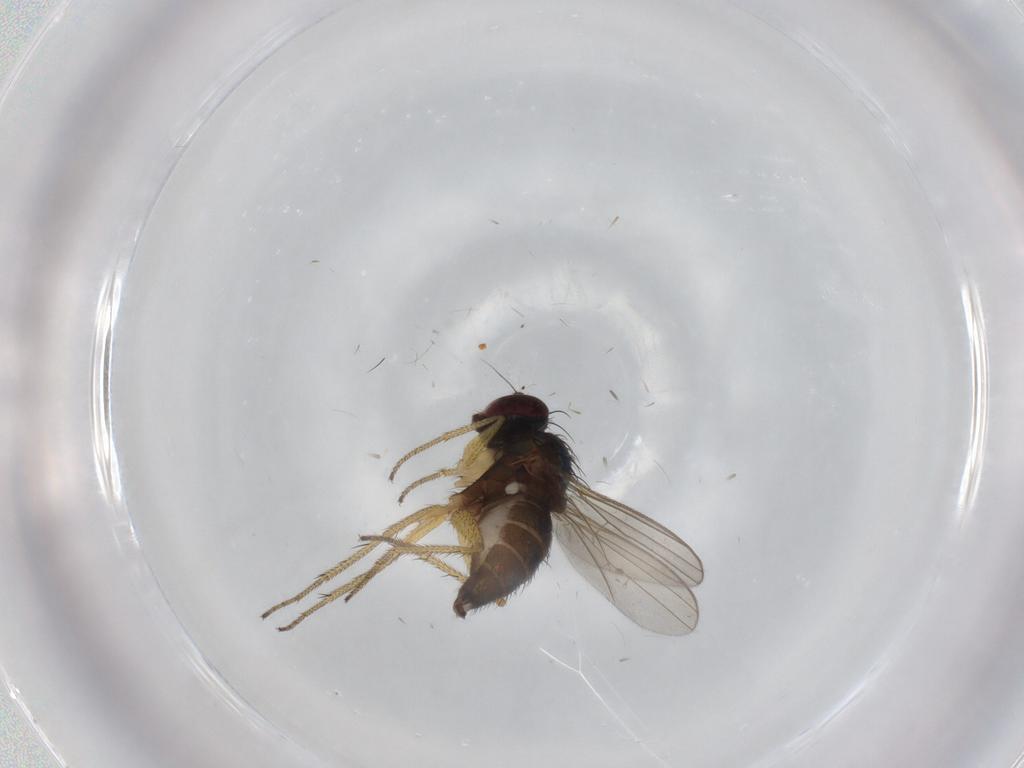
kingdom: Animalia
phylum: Arthropoda
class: Insecta
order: Diptera
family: Dolichopodidae
